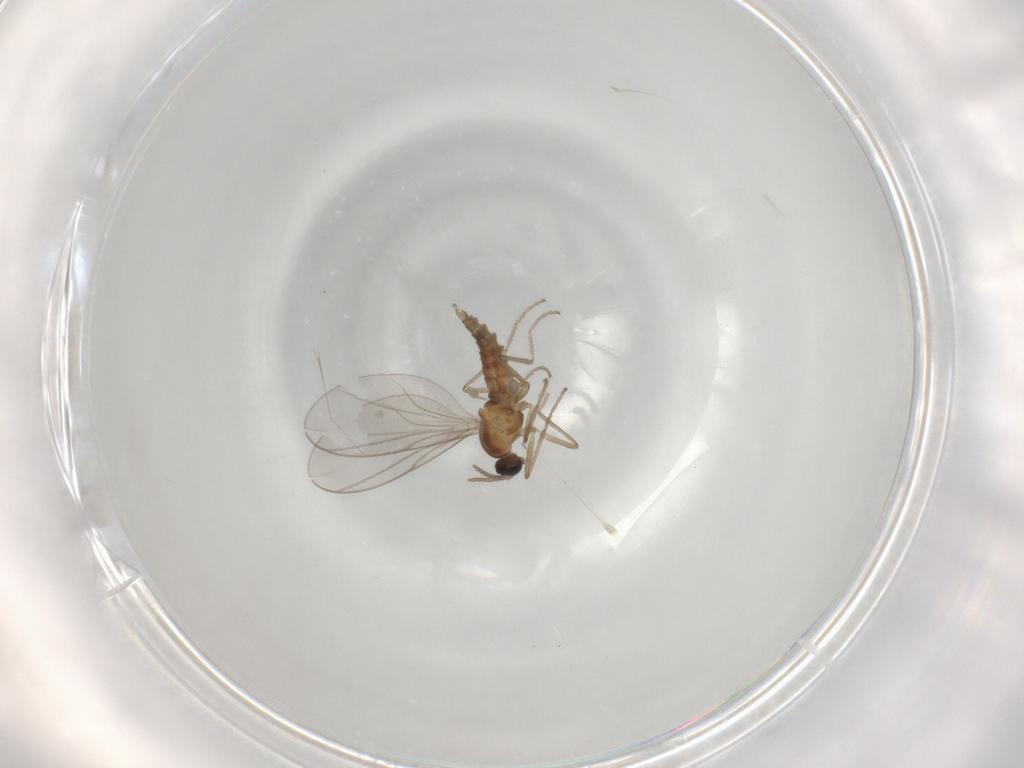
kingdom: Animalia
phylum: Arthropoda
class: Insecta
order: Diptera
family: Cecidomyiidae
